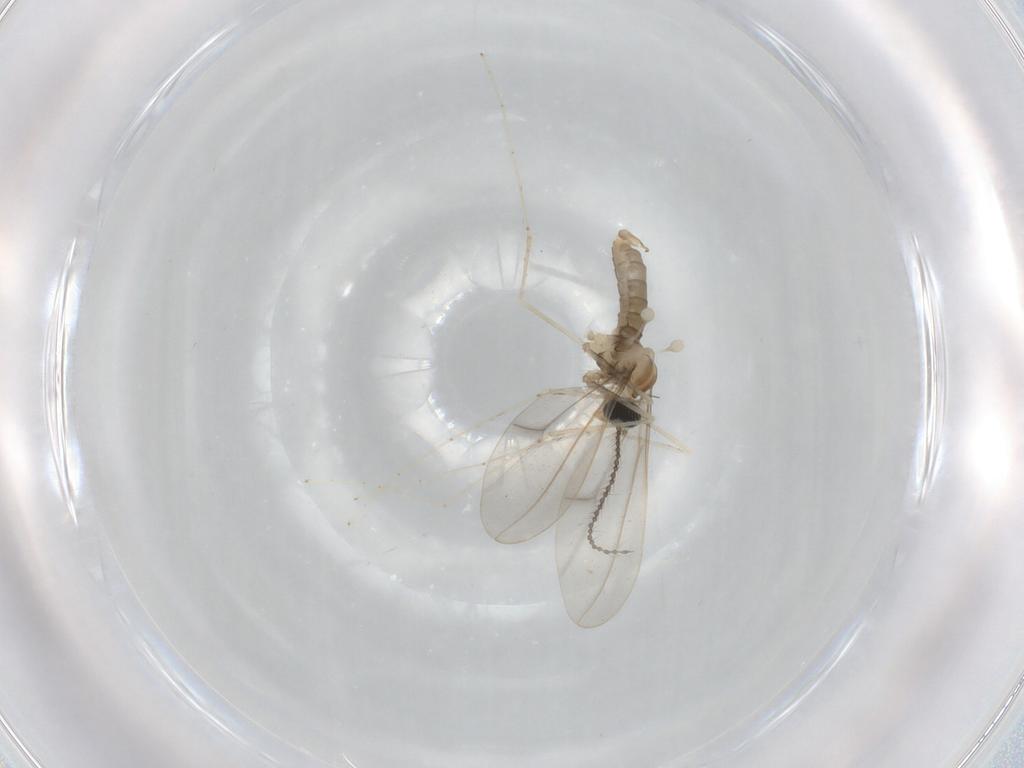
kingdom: Animalia
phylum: Arthropoda
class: Insecta
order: Diptera
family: Cecidomyiidae
